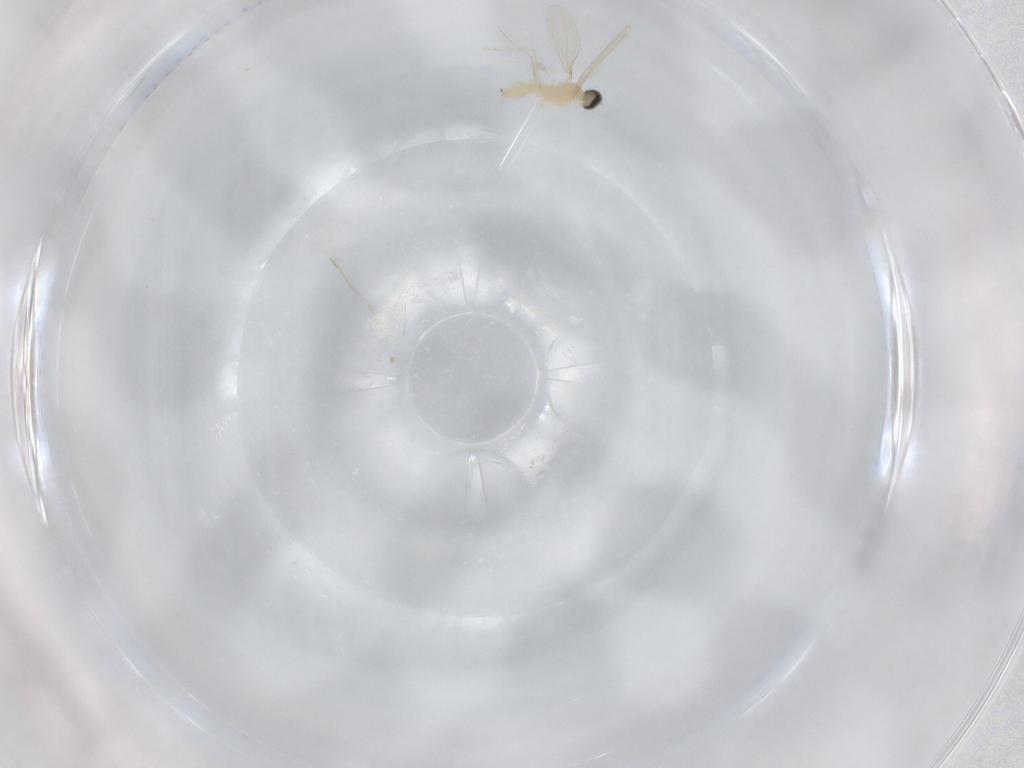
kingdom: Animalia
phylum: Arthropoda
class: Insecta
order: Diptera
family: Cecidomyiidae
